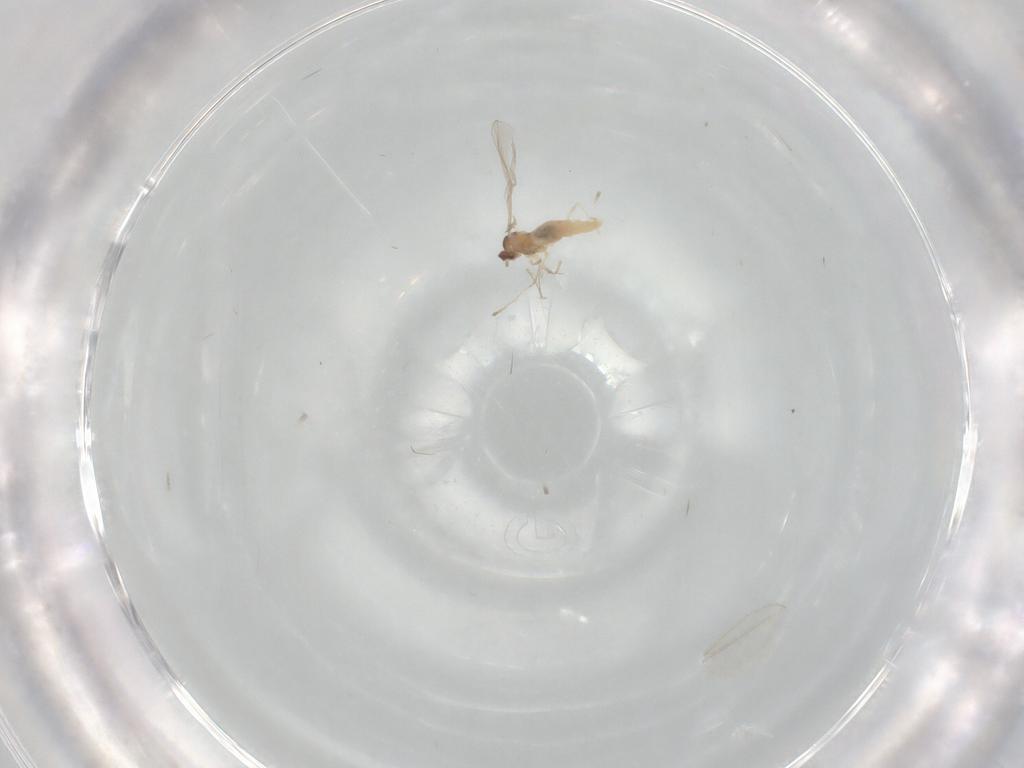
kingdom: Animalia
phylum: Arthropoda
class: Insecta
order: Diptera
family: Cecidomyiidae
